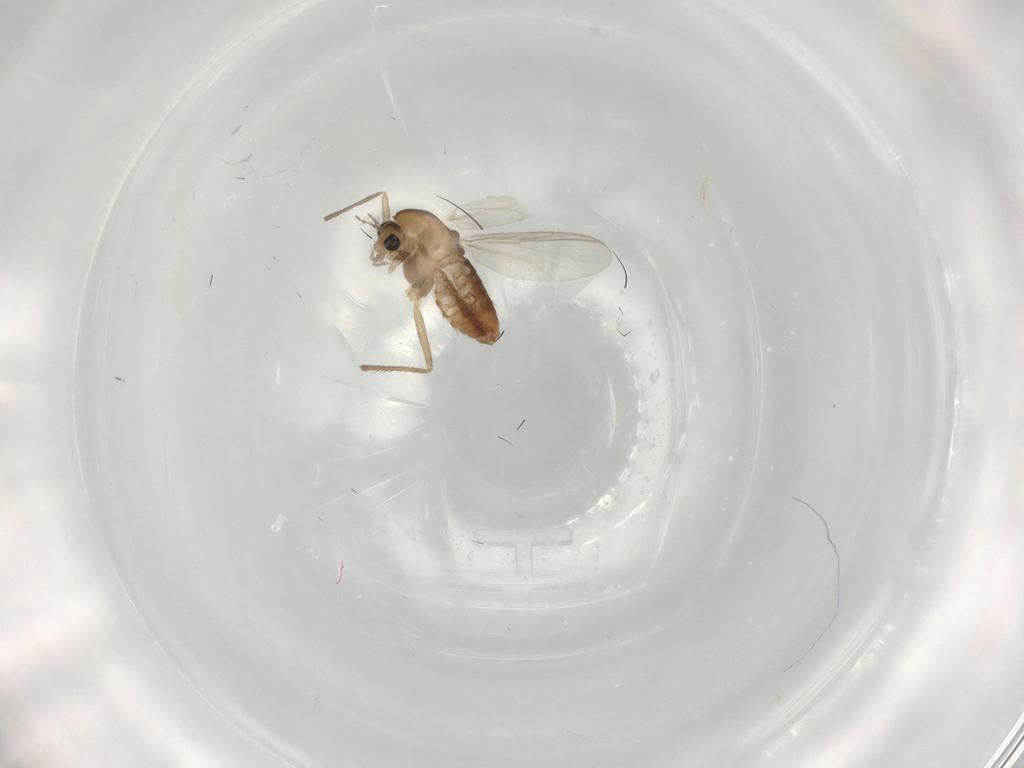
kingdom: Animalia
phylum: Arthropoda
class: Insecta
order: Diptera
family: Chironomidae
